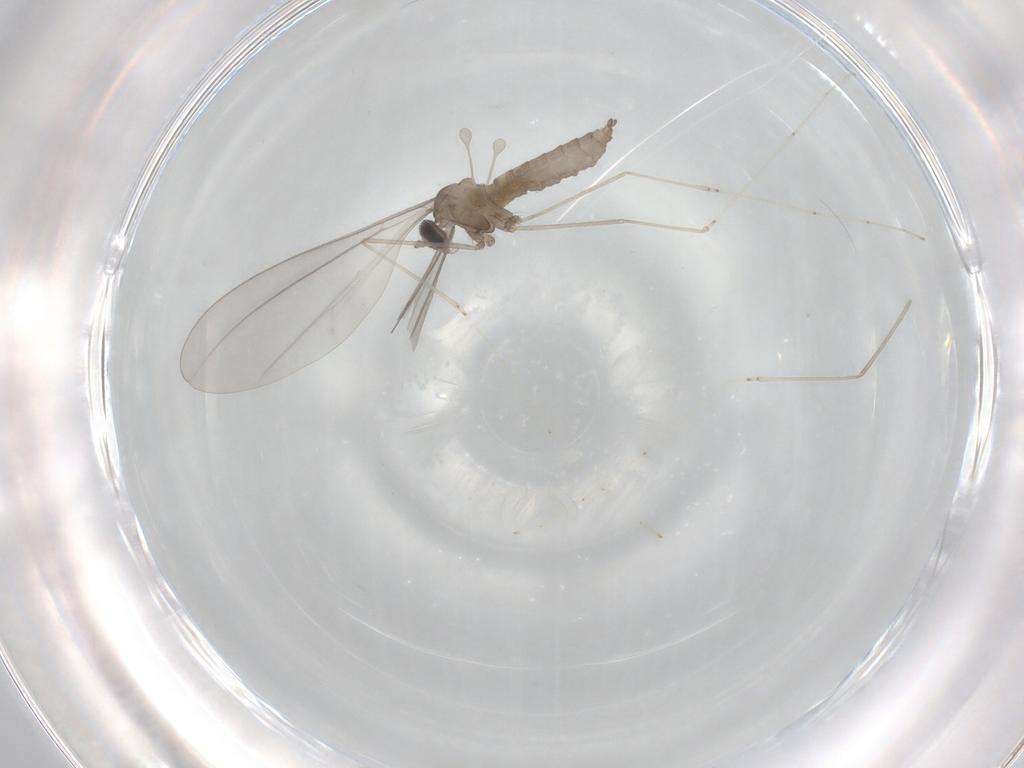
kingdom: Animalia
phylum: Arthropoda
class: Insecta
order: Diptera
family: Cecidomyiidae
